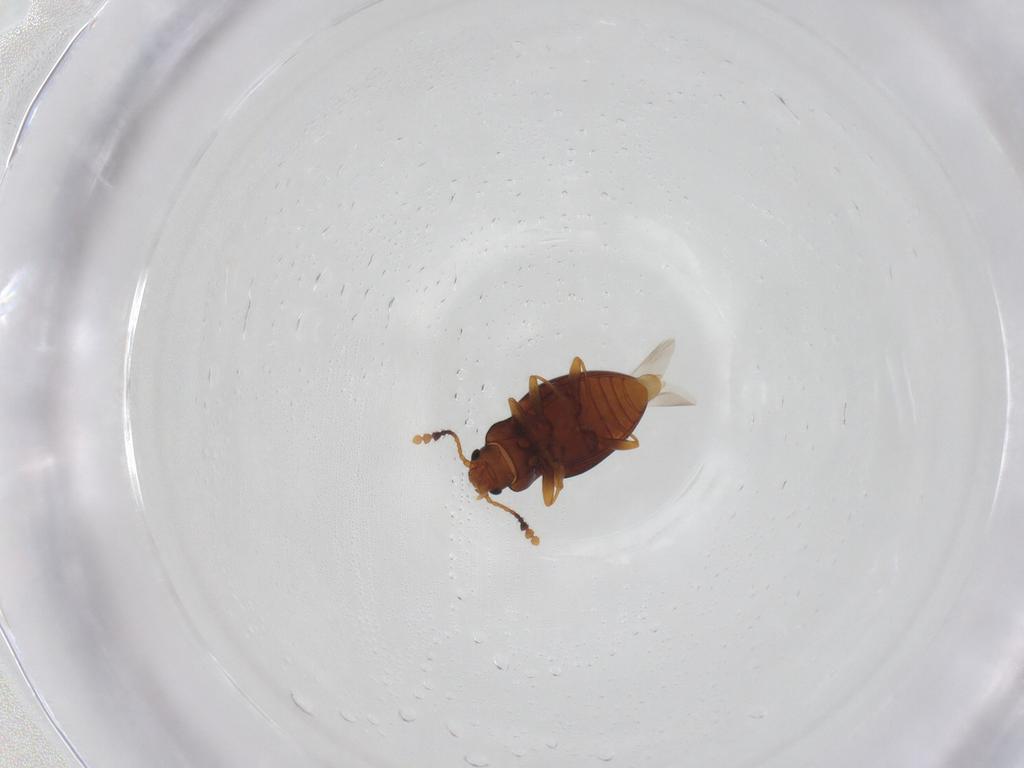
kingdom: Animalia
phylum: Arthropoda
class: Insecta
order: Coleoptera
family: Erotylidae
